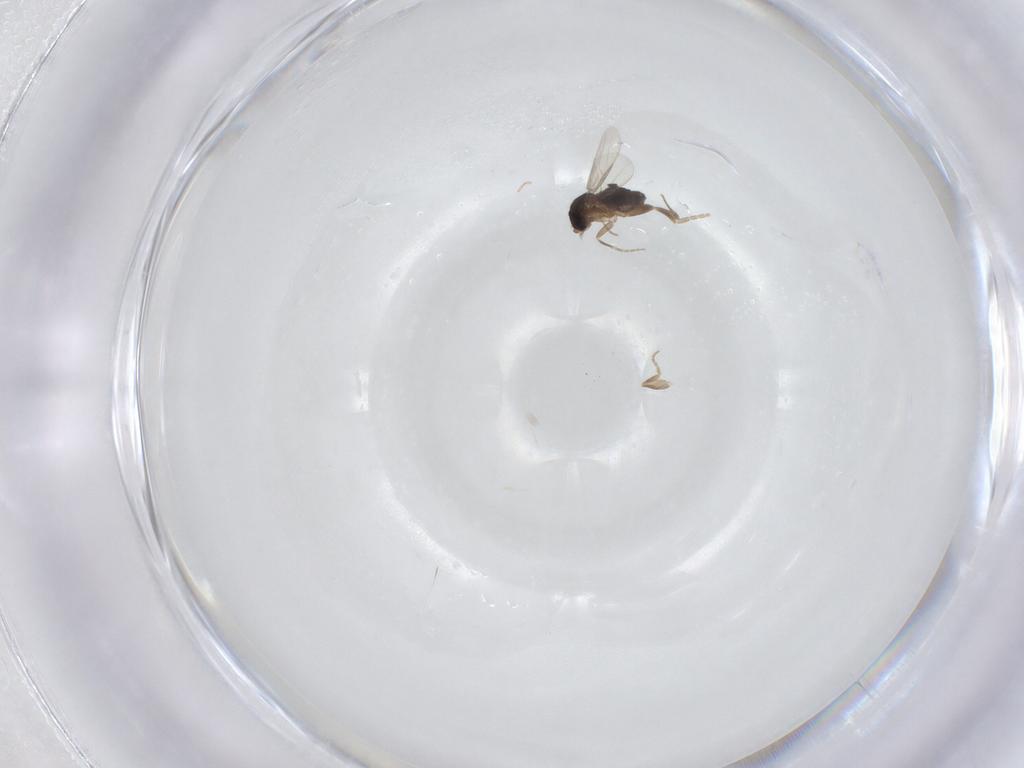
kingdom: Animalia
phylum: Arthropoda
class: Insecta
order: Diptera
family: Phoridae
